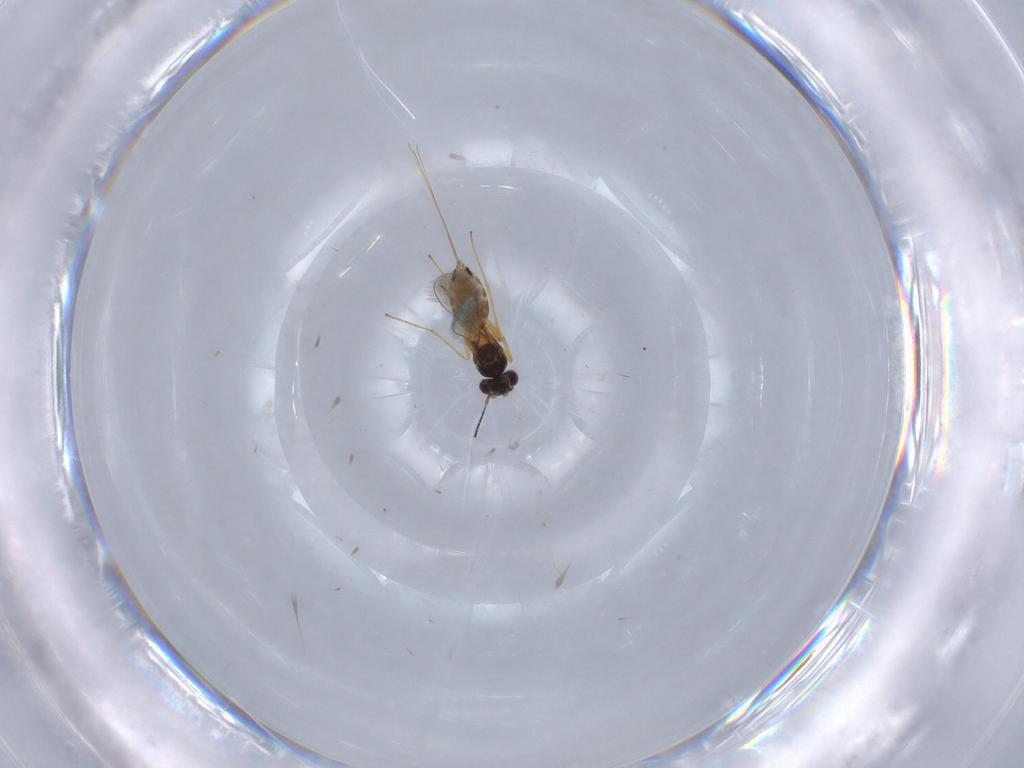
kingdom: Animalia
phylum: Arthropoda
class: Insecta
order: Hymenoptera
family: Mymaridae
